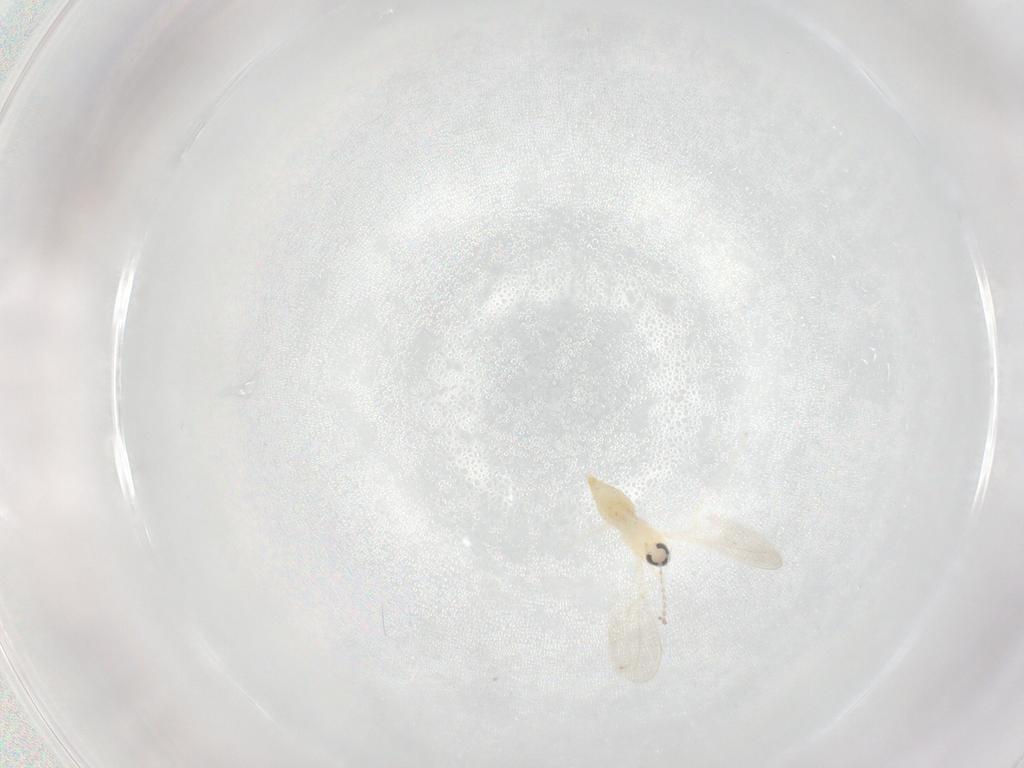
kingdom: Animalia
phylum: Arthropoda
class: Insecta
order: Diptera
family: Cecidomyiidae
